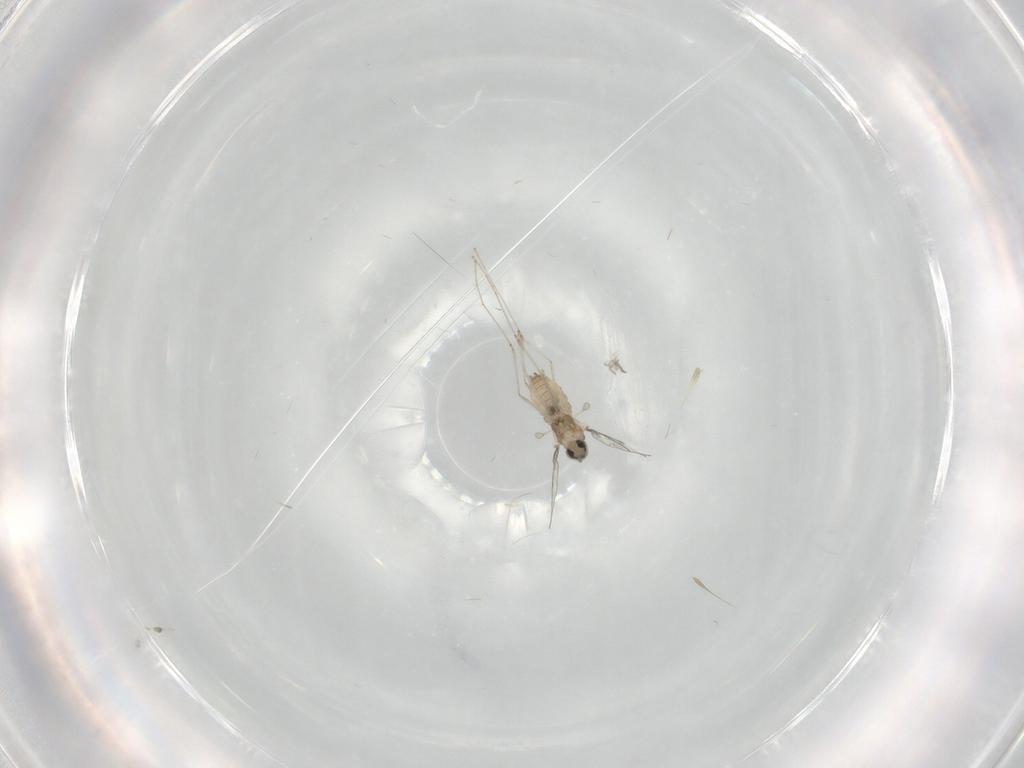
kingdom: Animalia
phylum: Arthropoda
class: Insecta
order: Diptera
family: Cecidomyiidae
